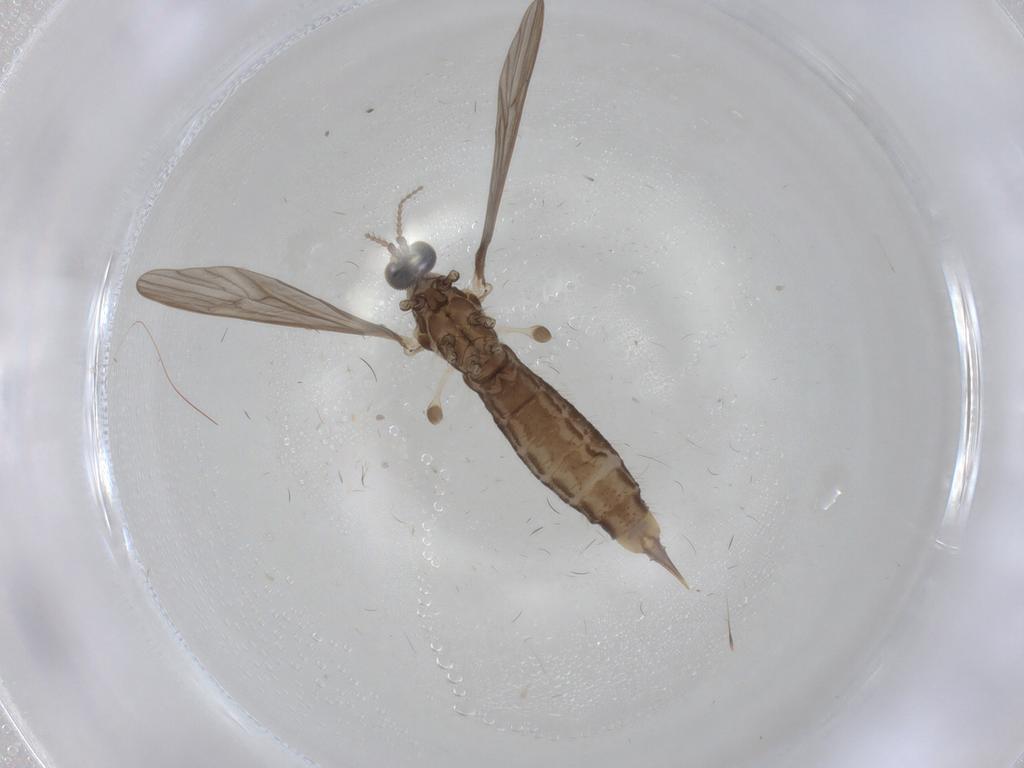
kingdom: Animalia
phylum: Arthropoda
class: Insecta
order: Diptera
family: Limoniidae
